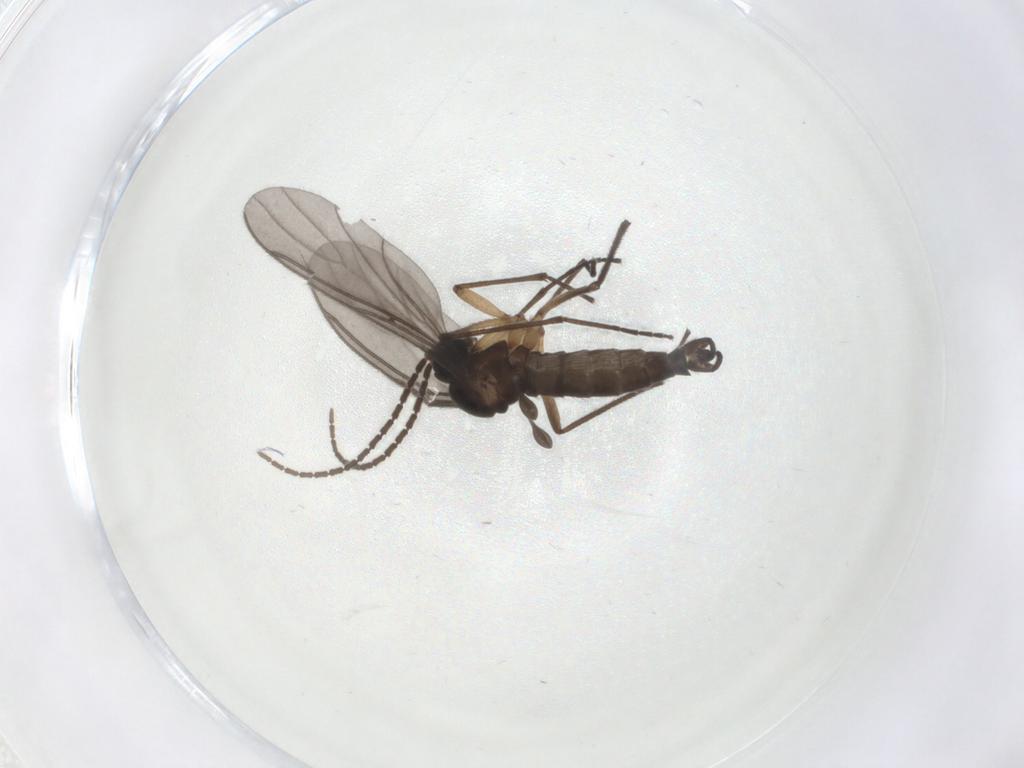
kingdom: Animalia
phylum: Arthropoda
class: Insecta
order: Diptera
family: Sciaridae
